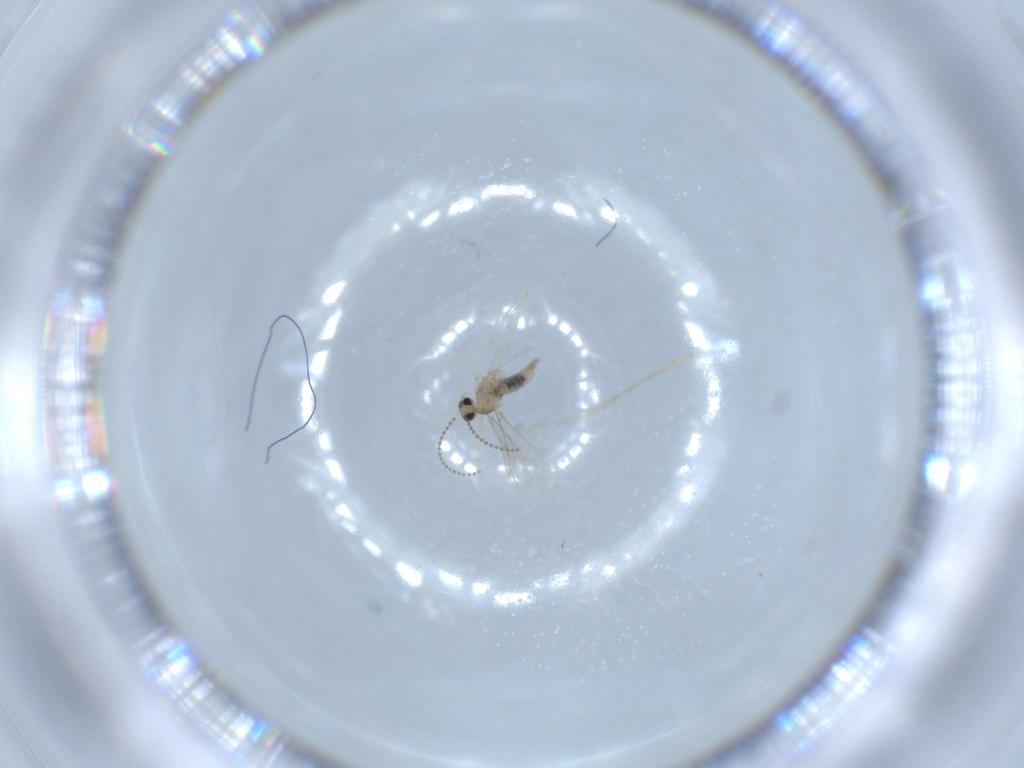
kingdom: Animalia
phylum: Arthropoda
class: Insecta
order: Diptera
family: Cecidomyiidae
